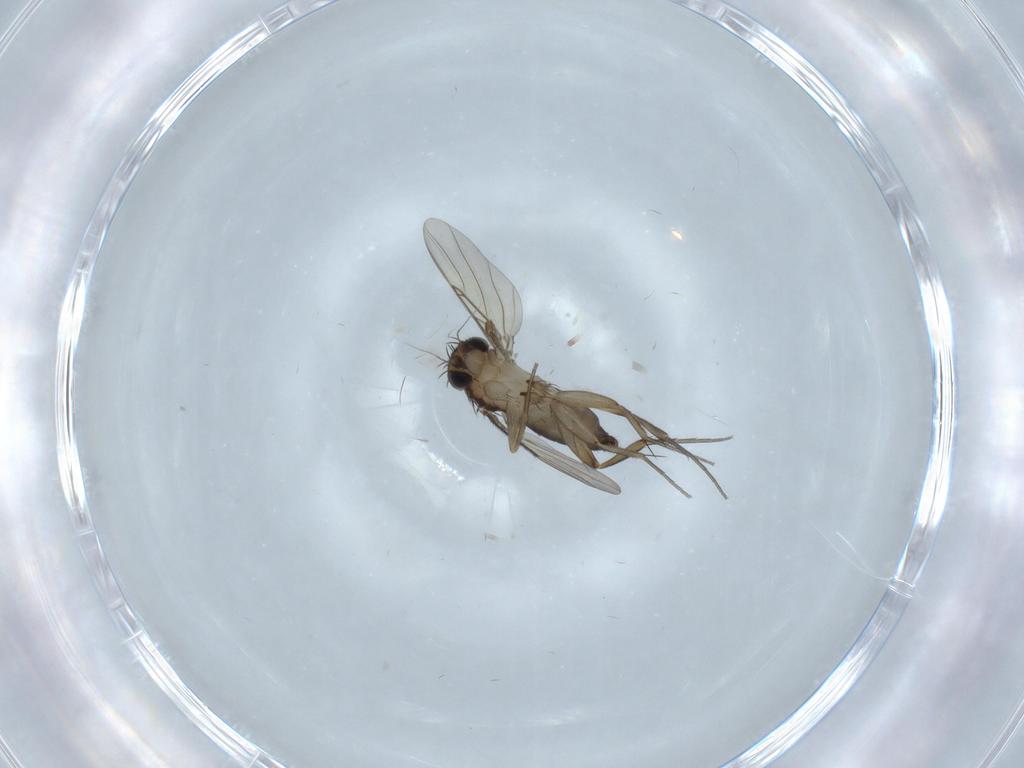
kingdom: Animalia
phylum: Arthropoda
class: Insecta
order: Diptera
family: Phoridae
